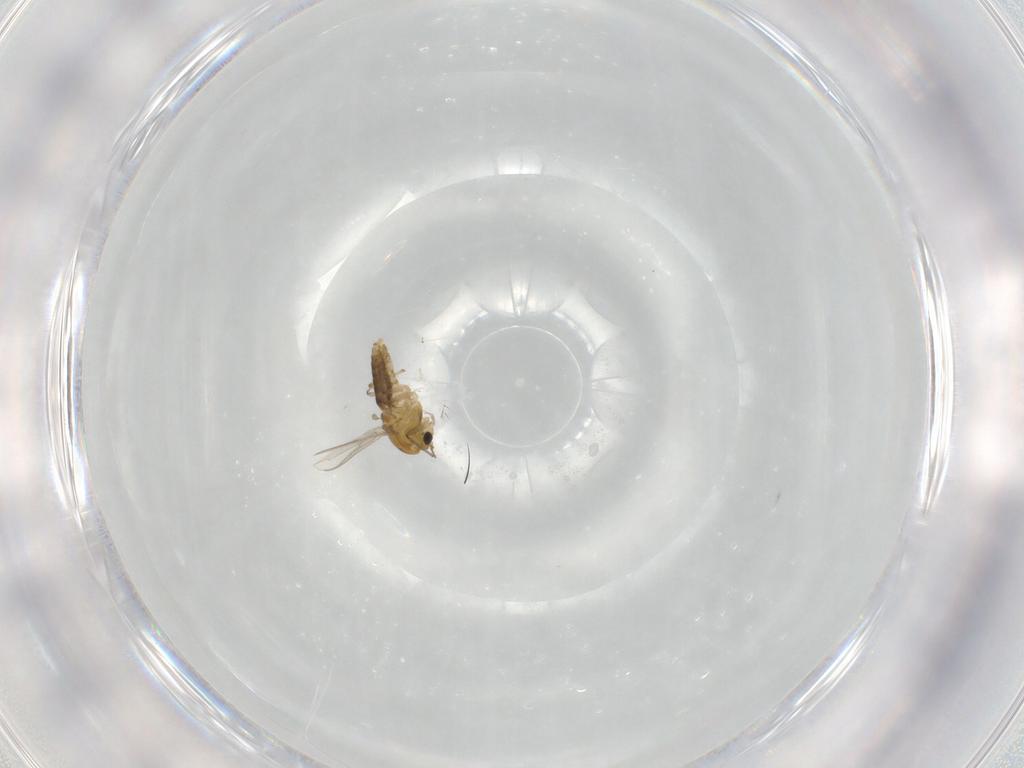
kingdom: Animalia
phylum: Arthropoda
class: Insecta
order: Diptera
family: Chironomidae
